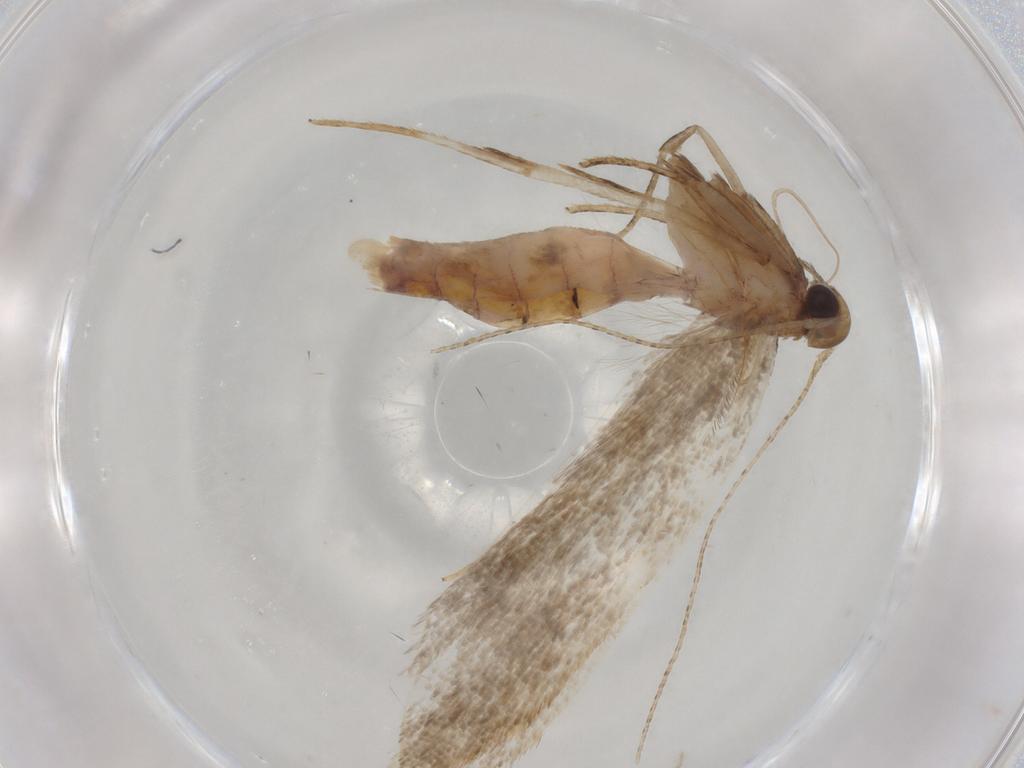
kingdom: Animalia
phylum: Arthropoda
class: Insecta
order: Lepidoptera
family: Gelechiidae
